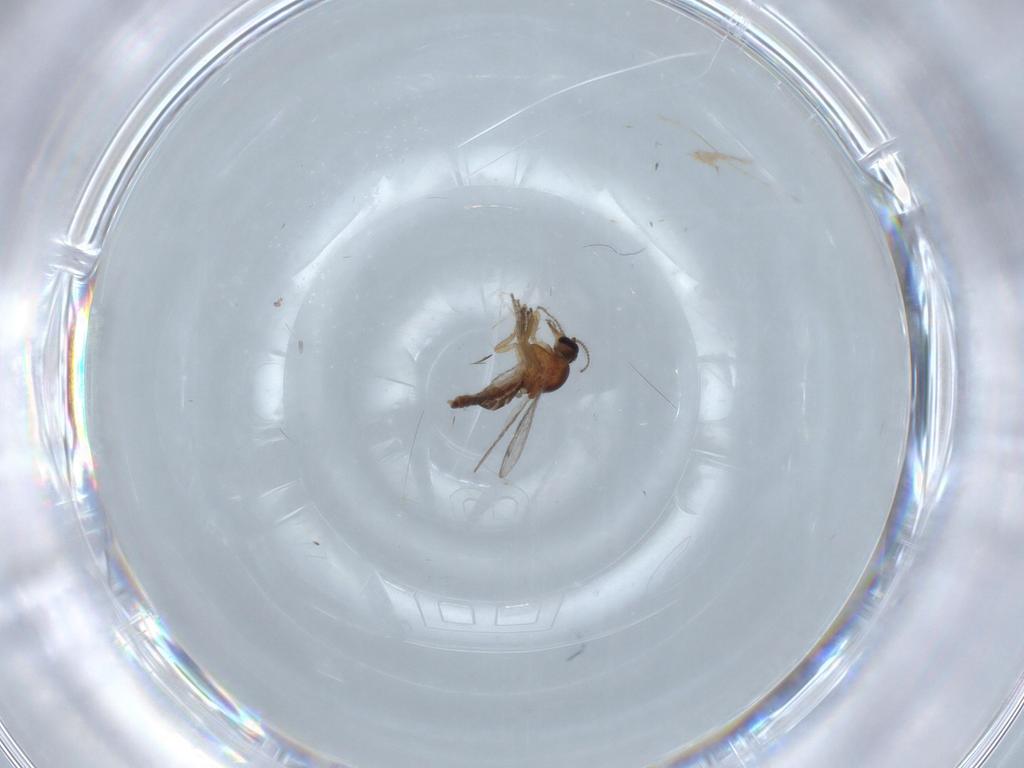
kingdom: Animalia
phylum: Arthropoda
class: Insecta
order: Diptera
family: Ceratopogonidae
